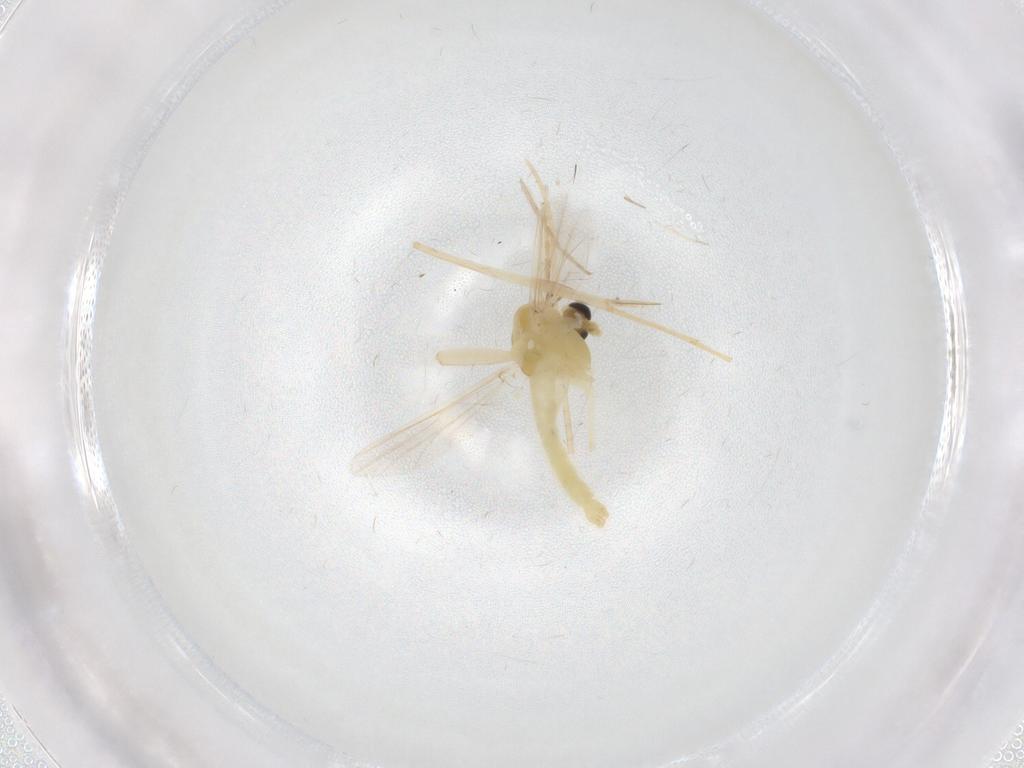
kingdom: Animalia
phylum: Arthropoda
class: Insecta
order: Diptera
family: Chironomidae
